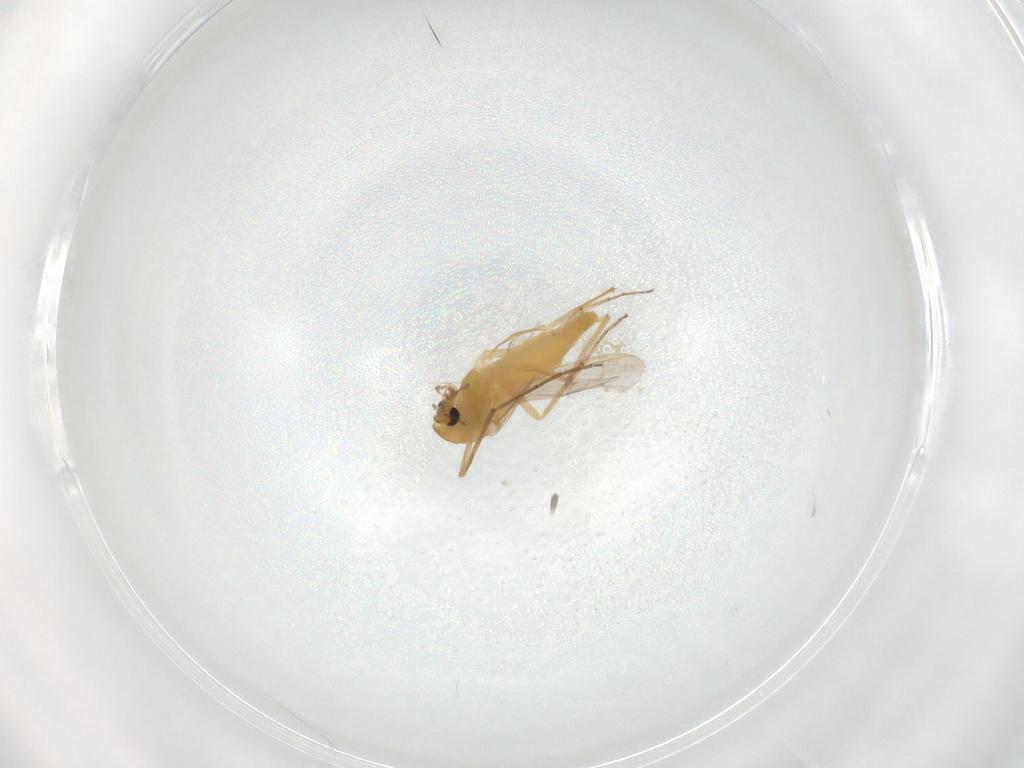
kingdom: Animalia
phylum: Arthropoda
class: Insecta
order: Diptera
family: Chironomidae
